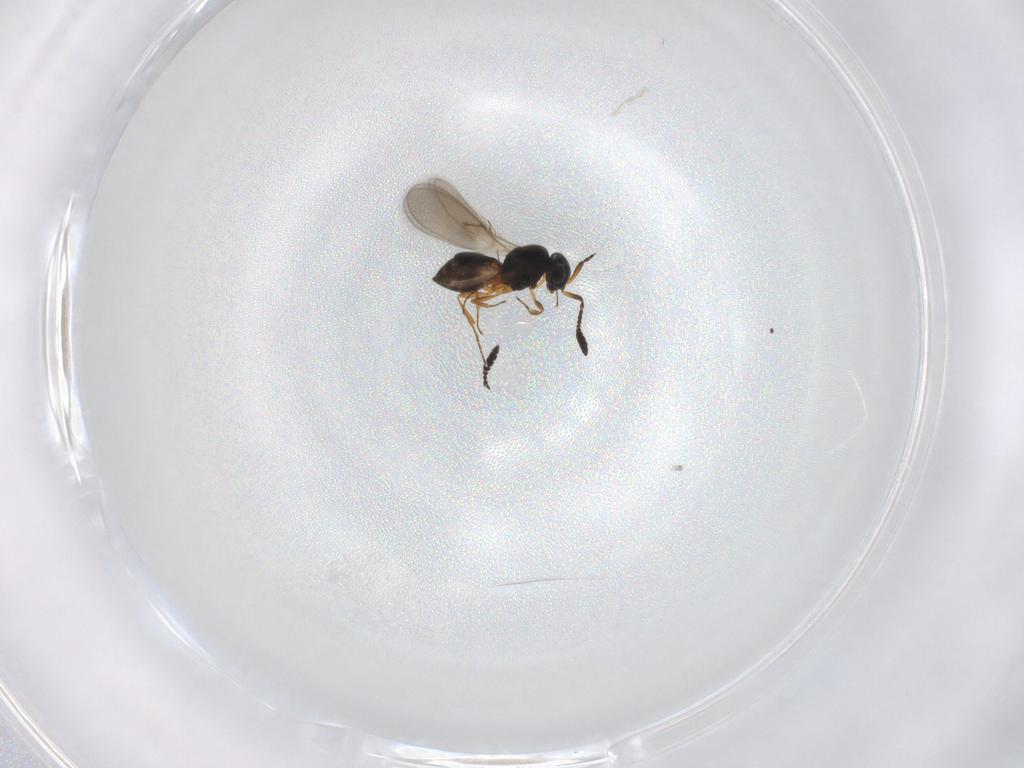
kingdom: Animalia
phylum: Arthropoda
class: Insecta
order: Hymenoptera
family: Scelionidae
